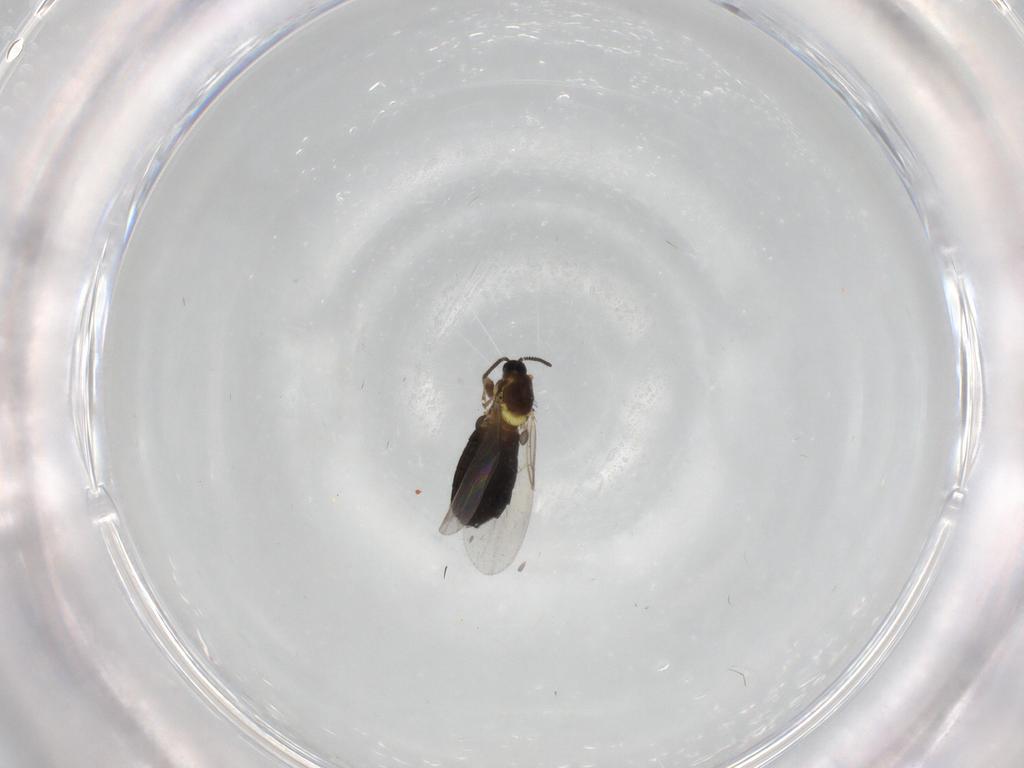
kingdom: Animalia
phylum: Arthropoda
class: Insecta
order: Diptera
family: Scatopsidae
